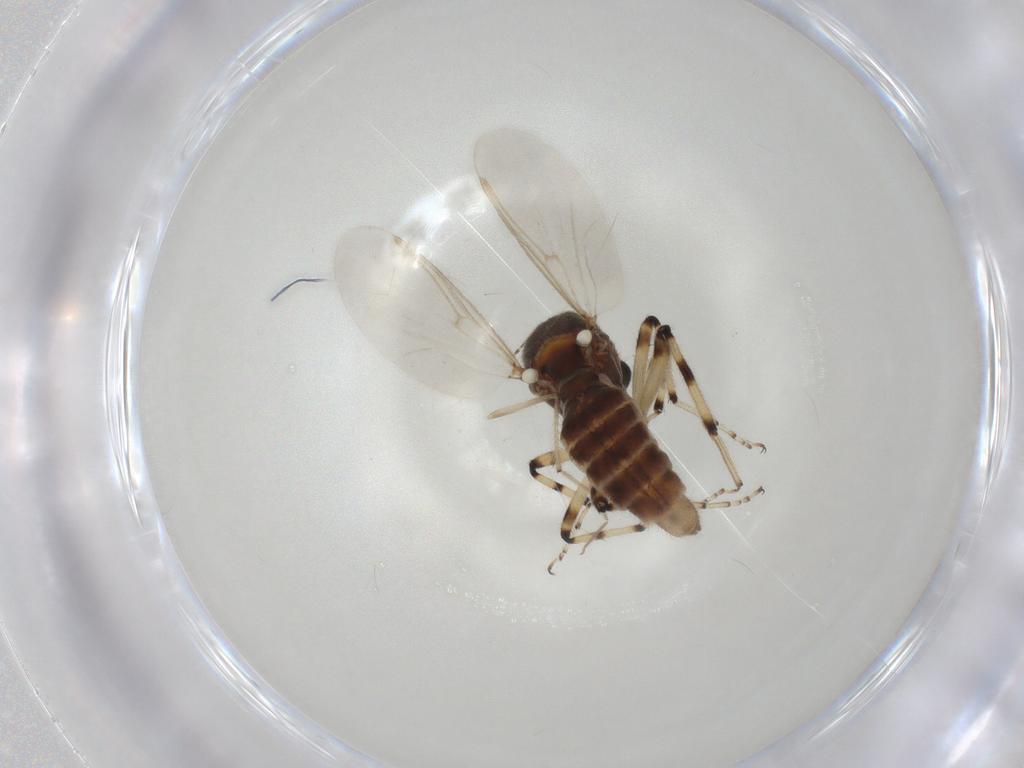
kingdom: Animalia
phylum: Arthropoda
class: Insecta
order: Diptera
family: Ceratopogonidae
